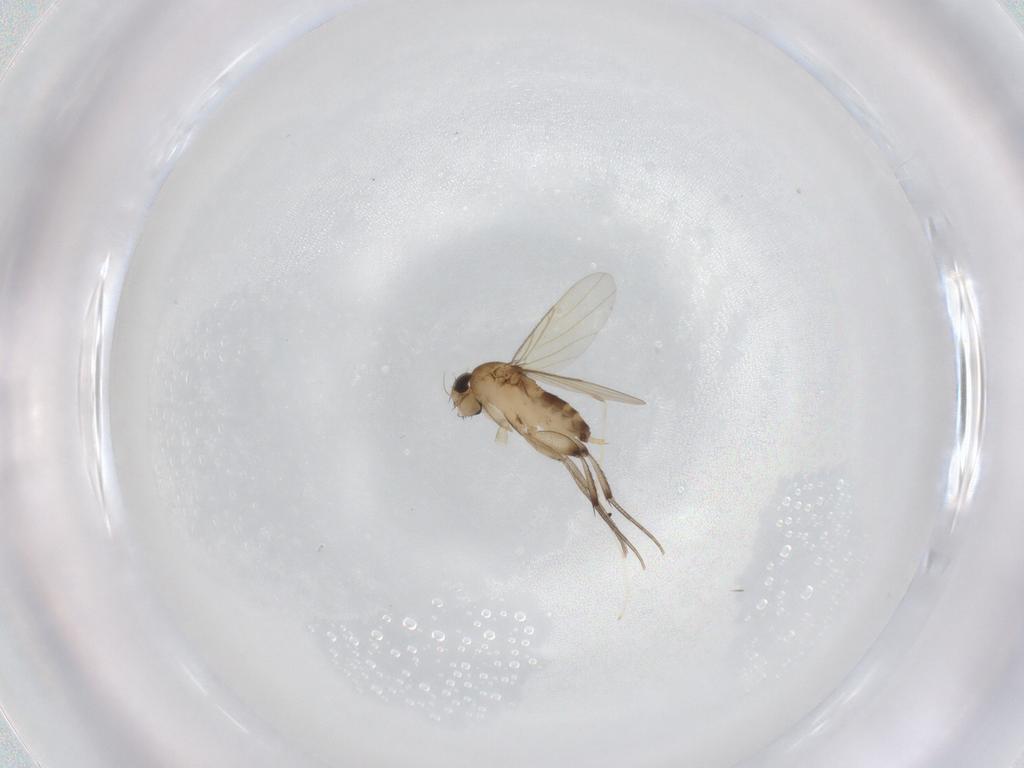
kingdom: Animalia
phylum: Arthropoda
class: Insecta
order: Diptera
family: Phoridae
